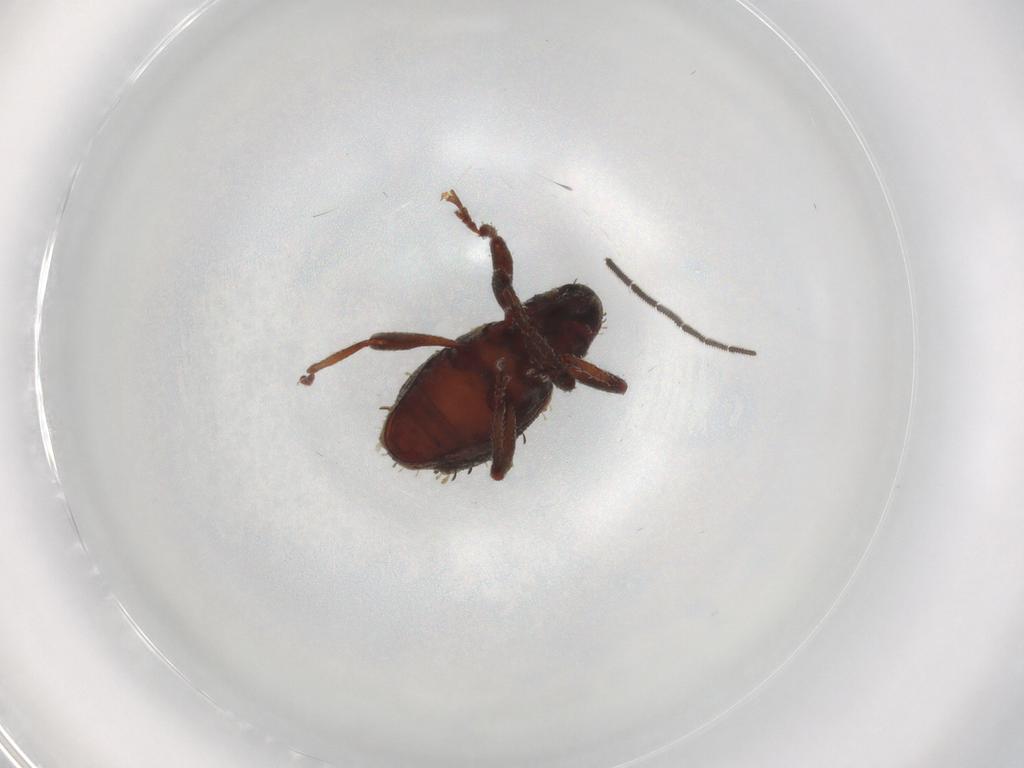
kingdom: Animalia
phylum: Arthropoda
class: Insecta
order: Coleoptera
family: Curculionidae
